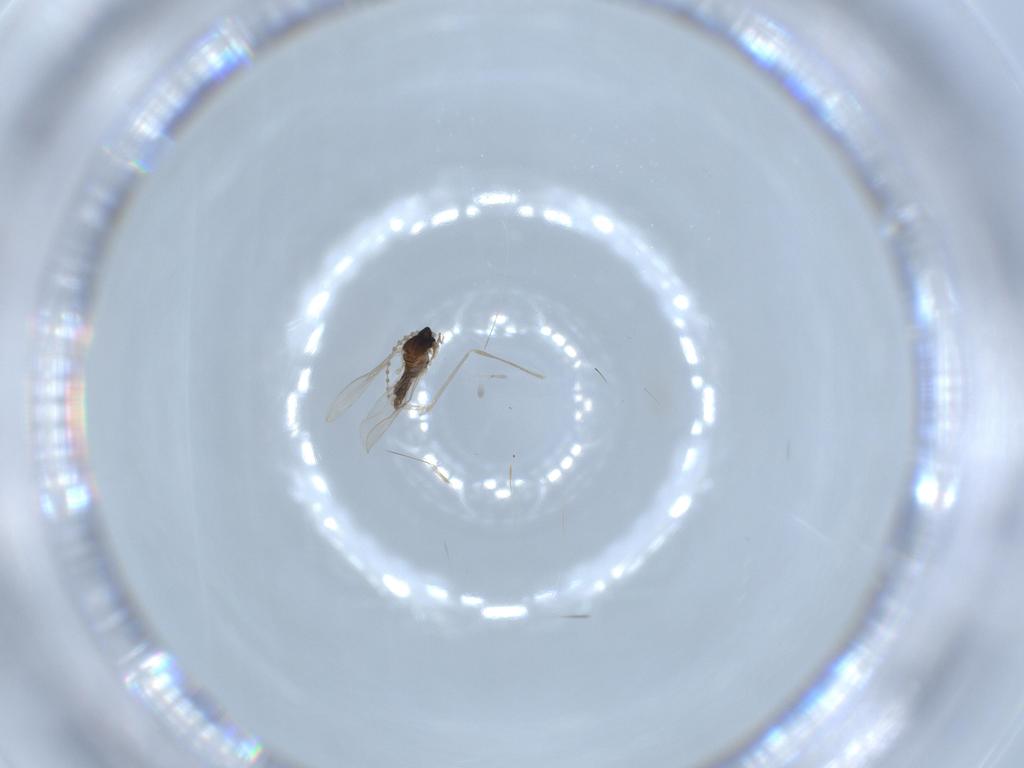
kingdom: Animalia
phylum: Arthropoda
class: Insecta
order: Diptera
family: Cecidomyiidae
